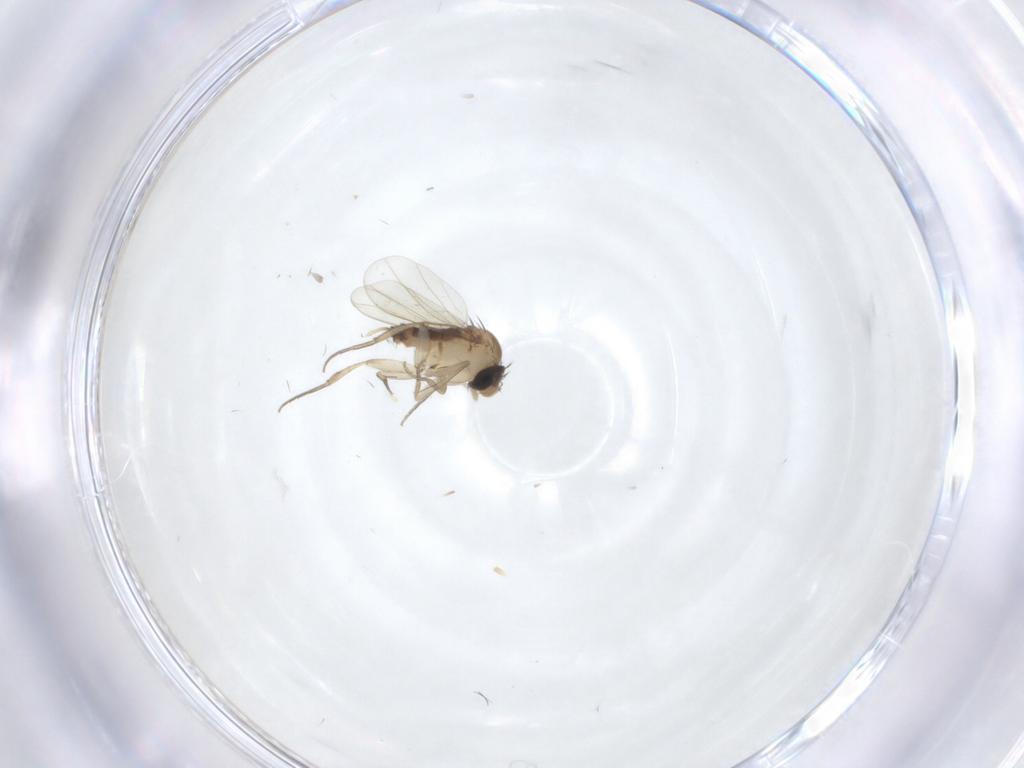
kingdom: Animalia
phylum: Arthropoda
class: Insecta
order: Diptera
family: Phoridae
